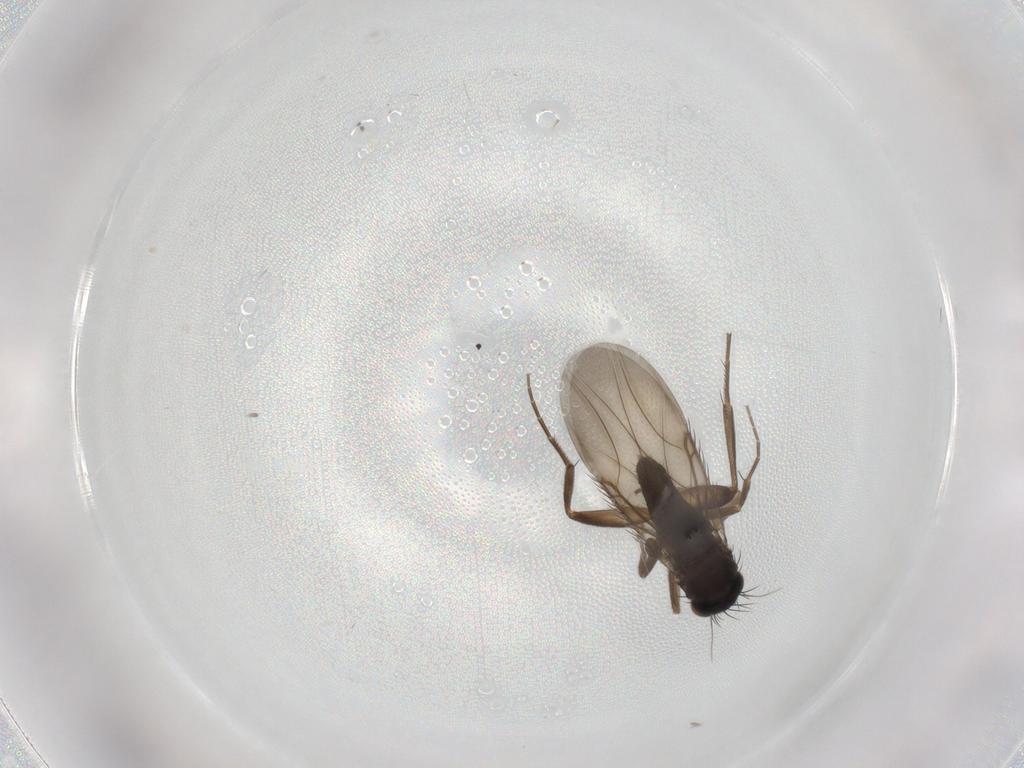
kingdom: Animalia
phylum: Arthropoda
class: Insecta
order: Diptera
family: Phoridae
